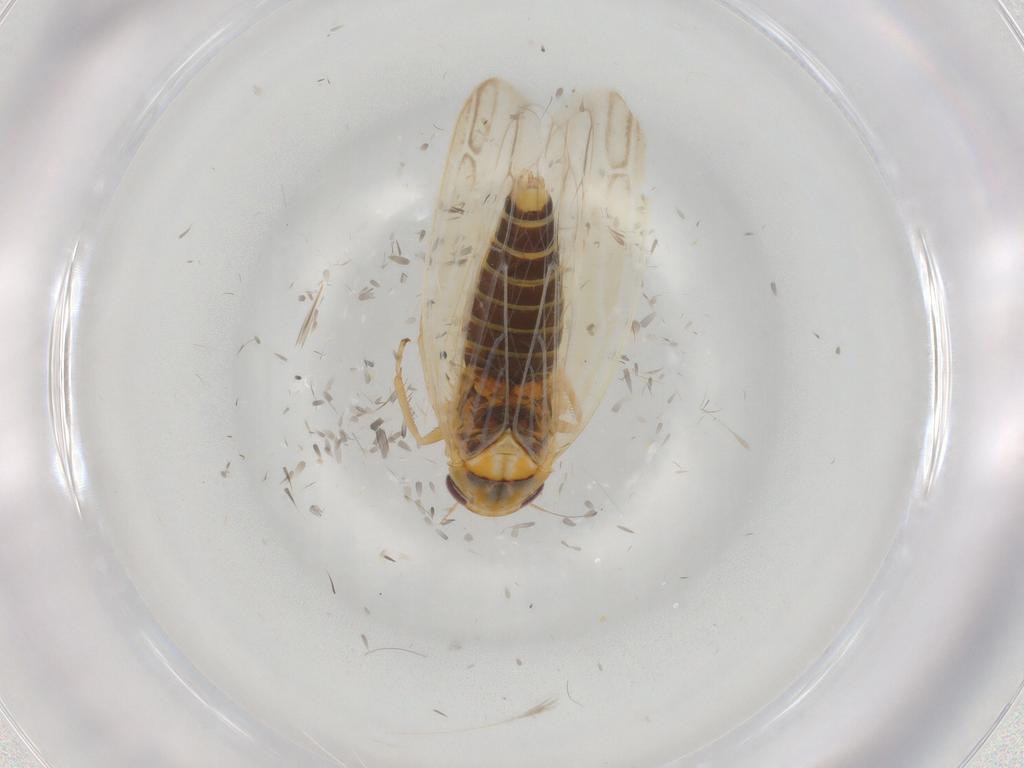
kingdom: Animalia
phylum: Arthropoda
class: Insecta
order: Hemiptera
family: Cicadellidae
